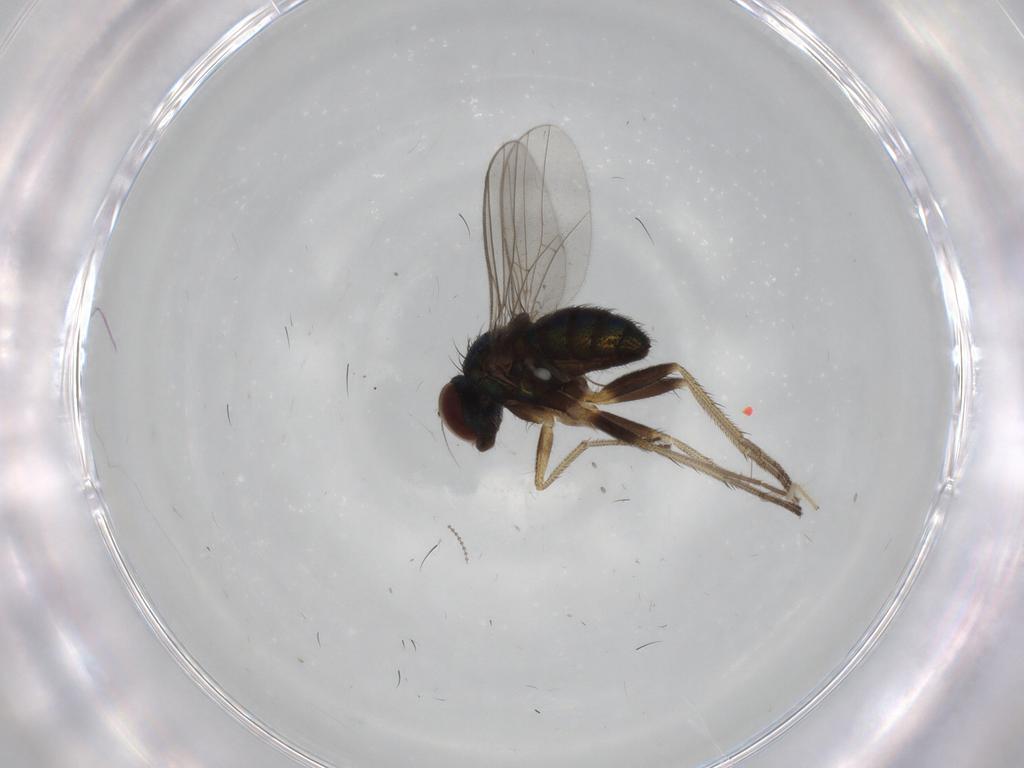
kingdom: Animalia
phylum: Arthropoda
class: Insecta
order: Diptera
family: Dolichopodidae
